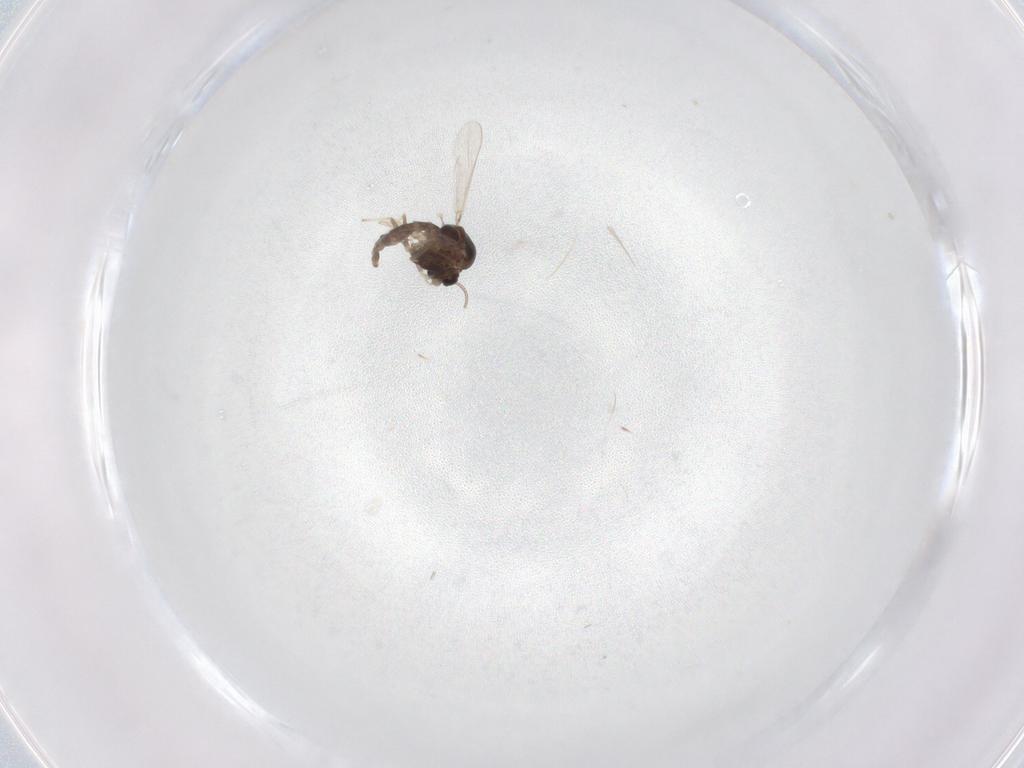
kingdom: Animalia
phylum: Arthropoda
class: Insecta
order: Diptera
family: Chironomidae
